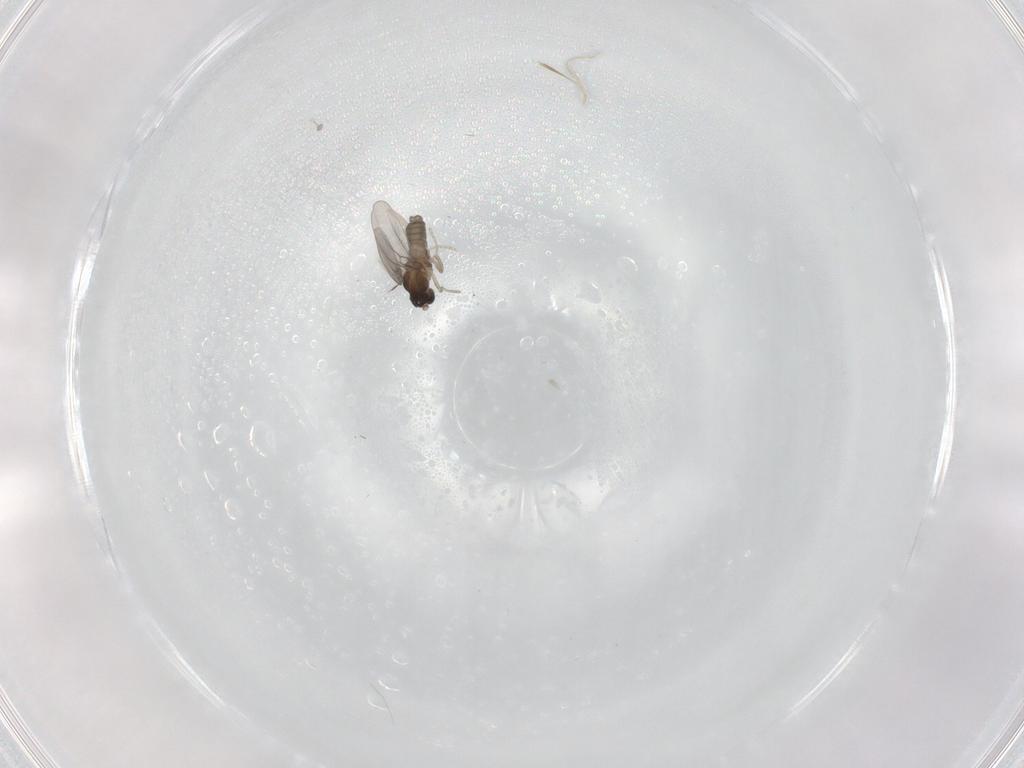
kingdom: Animalia
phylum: Arthropoda
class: Insecta
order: Diptera
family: Cecidomyiidae
